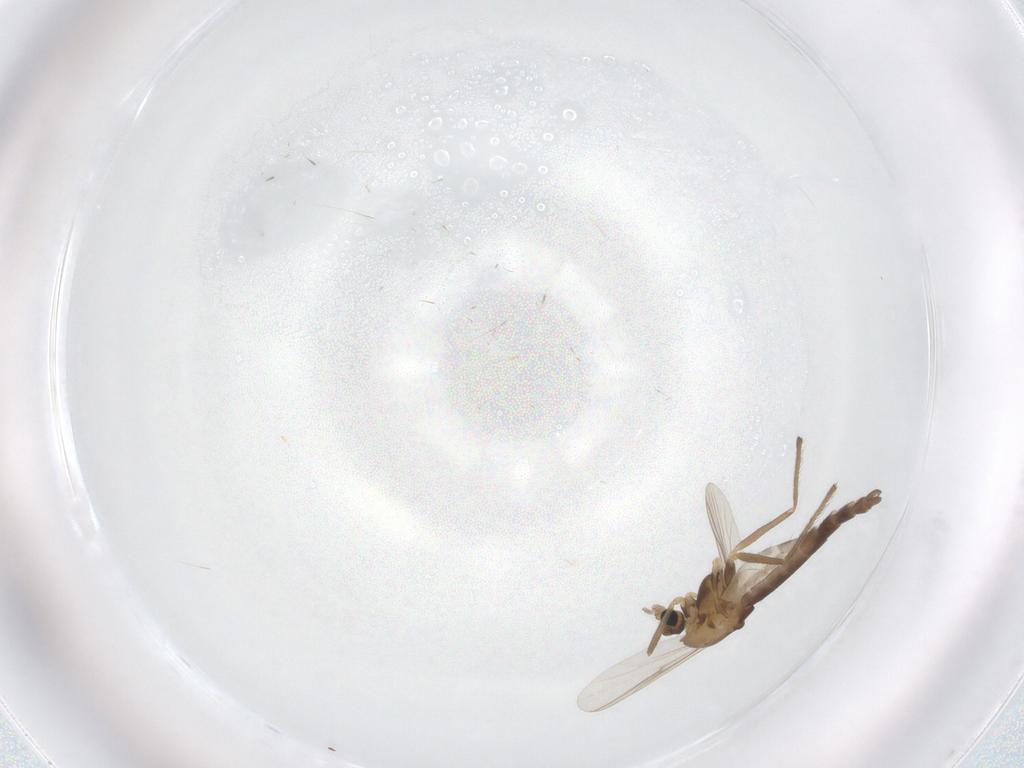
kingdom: Animalia
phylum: Arthropoda
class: Insecta
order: Diptera
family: Chironomidae
